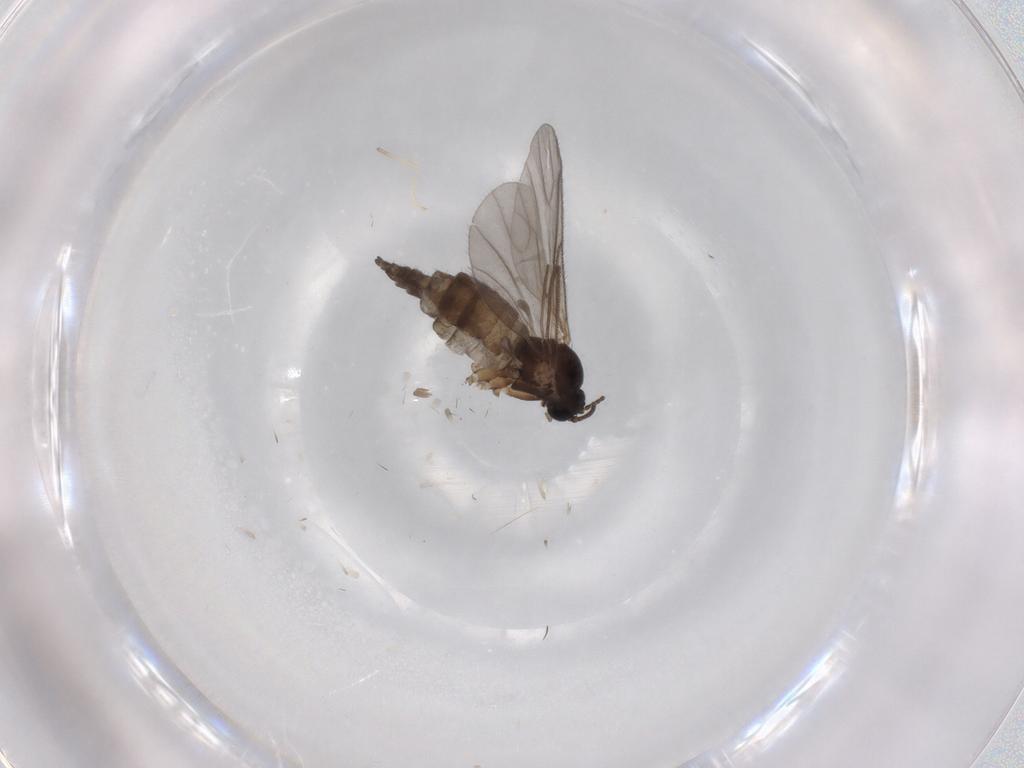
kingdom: Animalia
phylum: Arthropoda
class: Insecta
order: Diptera
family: Sciaridae
